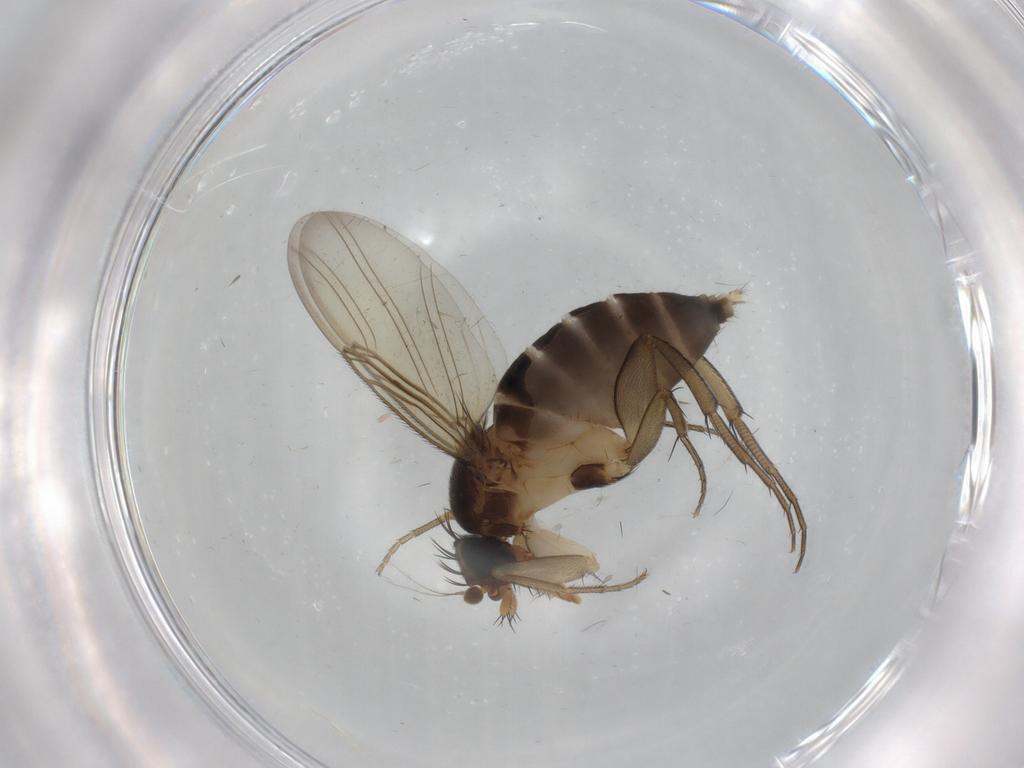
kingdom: Animalia
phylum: Arthropoda
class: Insecta
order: Diptera
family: Phoridae
